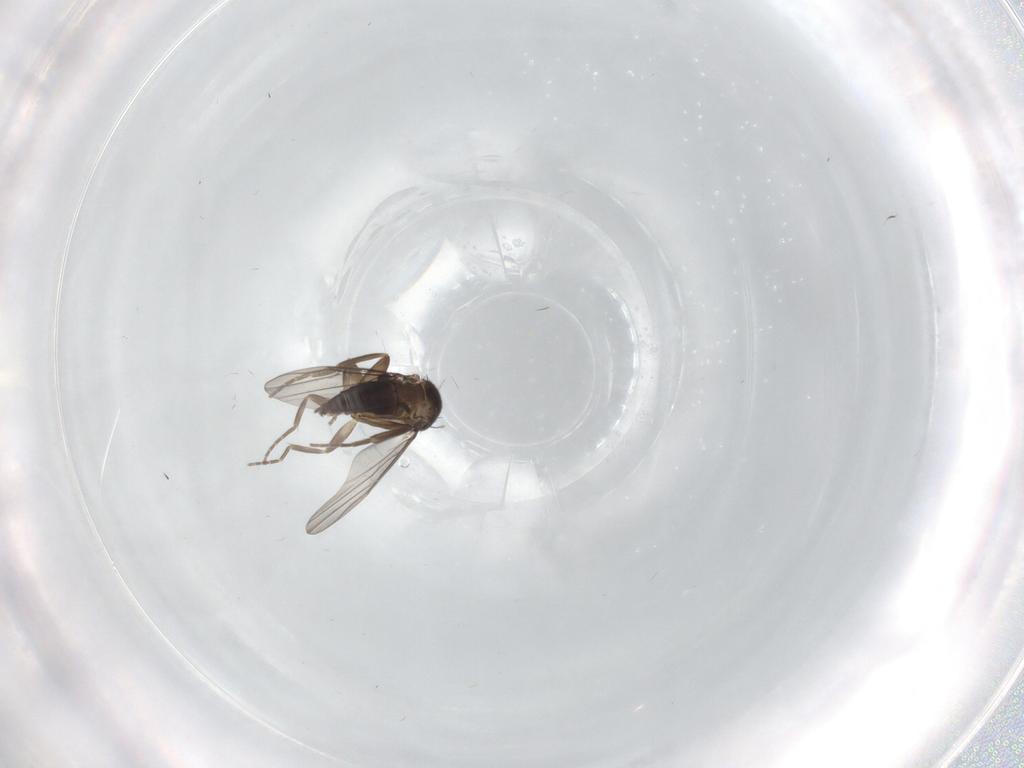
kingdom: Animalia
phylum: Arthropoda
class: Insecta
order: Diptera
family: Phoridae
